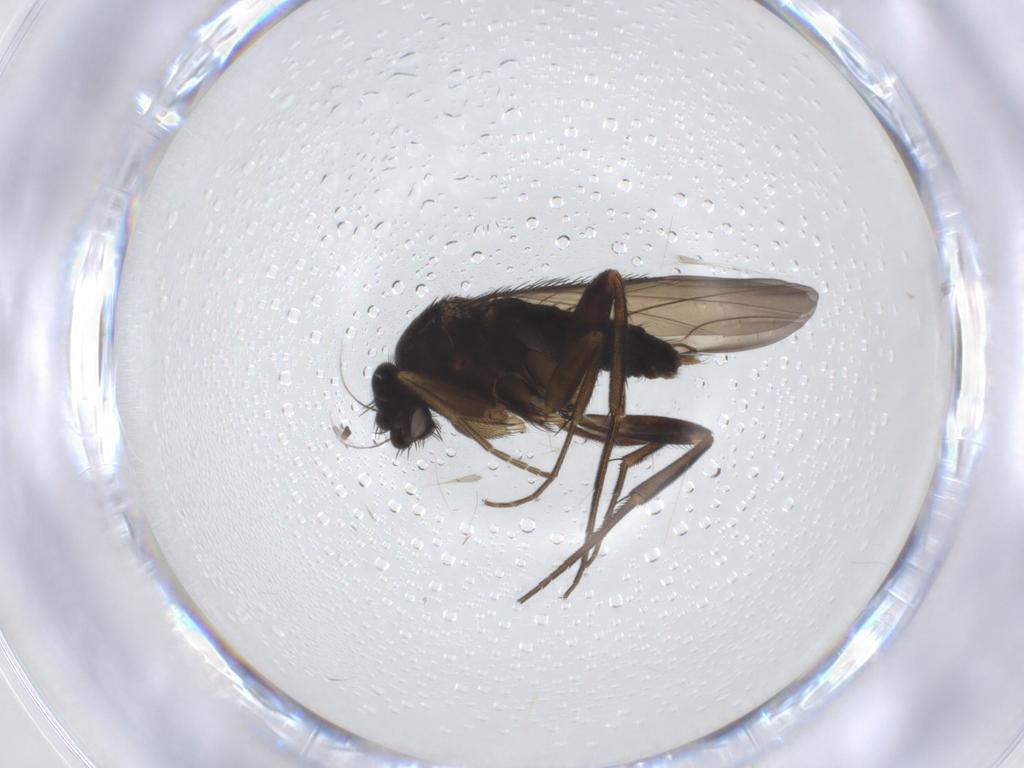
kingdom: Animalia
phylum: Arthropoda
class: Insecta
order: Diptera
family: Phoridae
